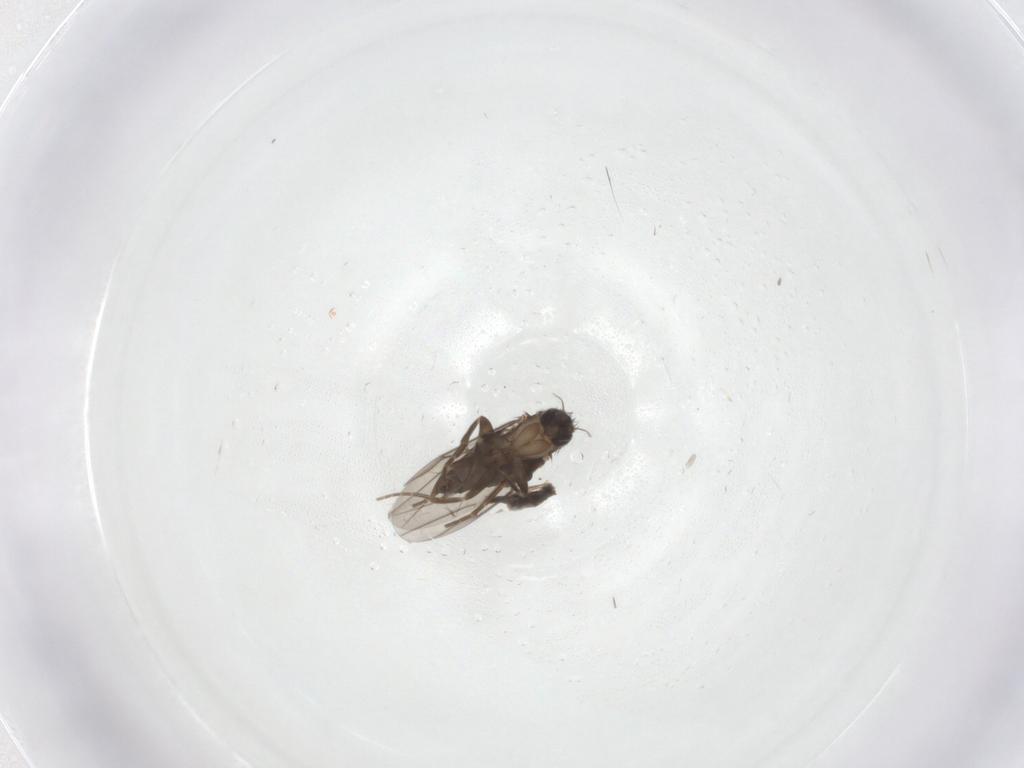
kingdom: Animalia
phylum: Arthropoda
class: Insecta
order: Diptera
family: Phoridae
